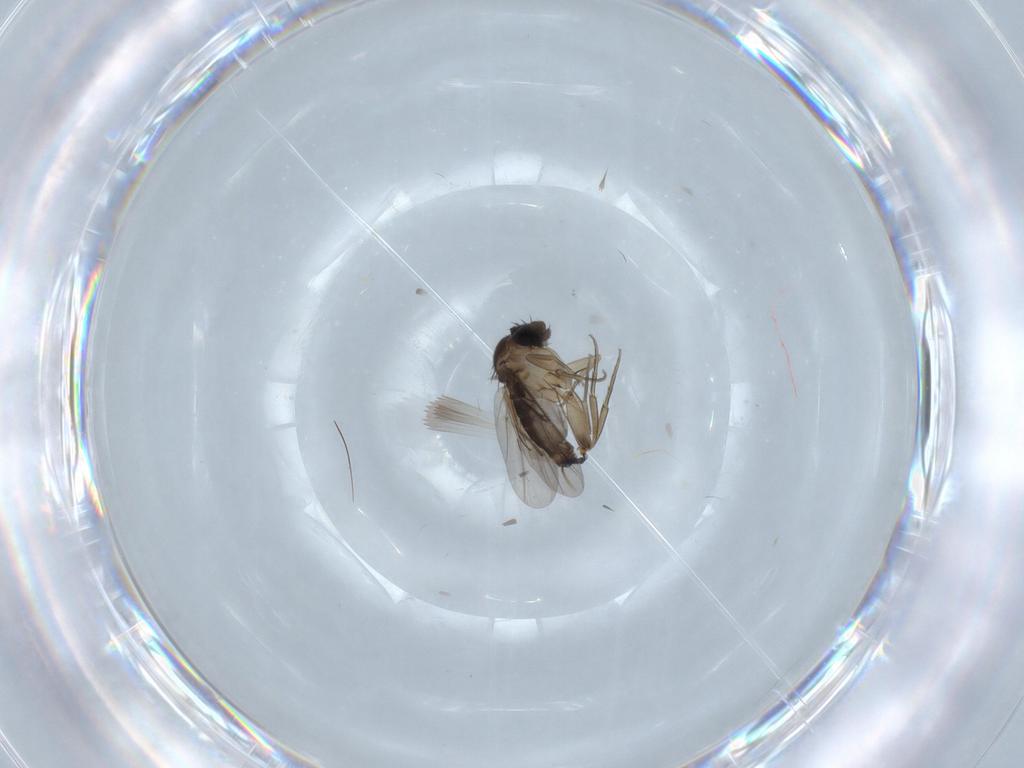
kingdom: Animalia
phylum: Arthropoda
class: Insecta
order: Diptera
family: Phoridae
